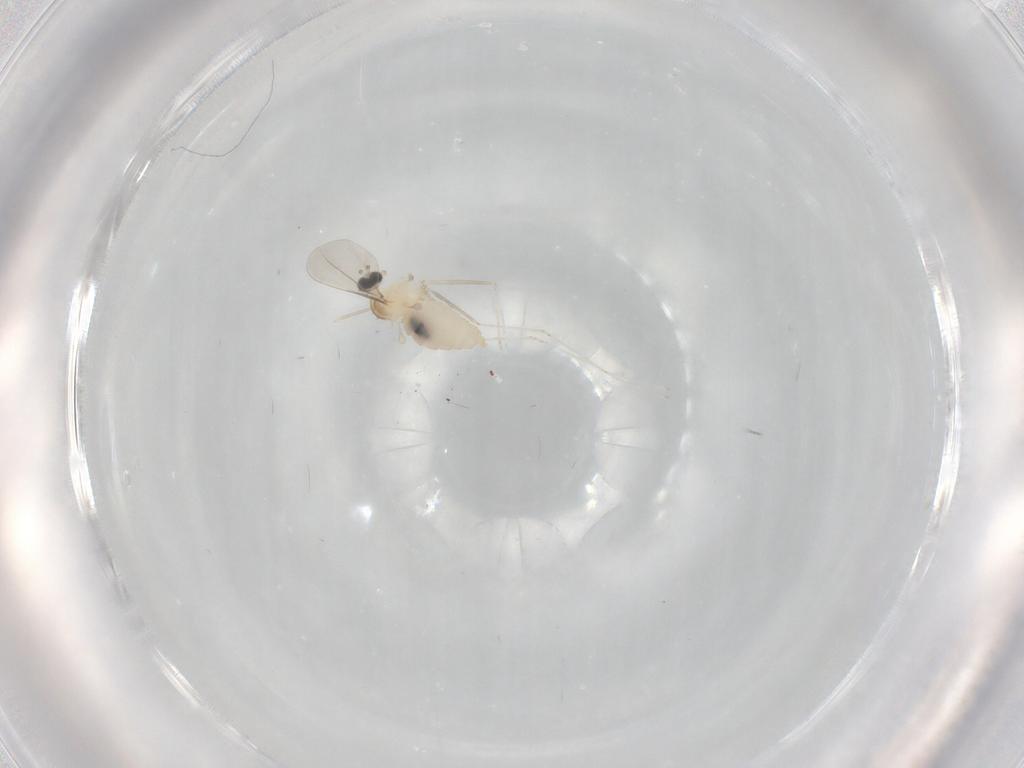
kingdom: Animalia
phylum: Arthropoda
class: Insecta
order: Diptera
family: Cecidomyiidae
